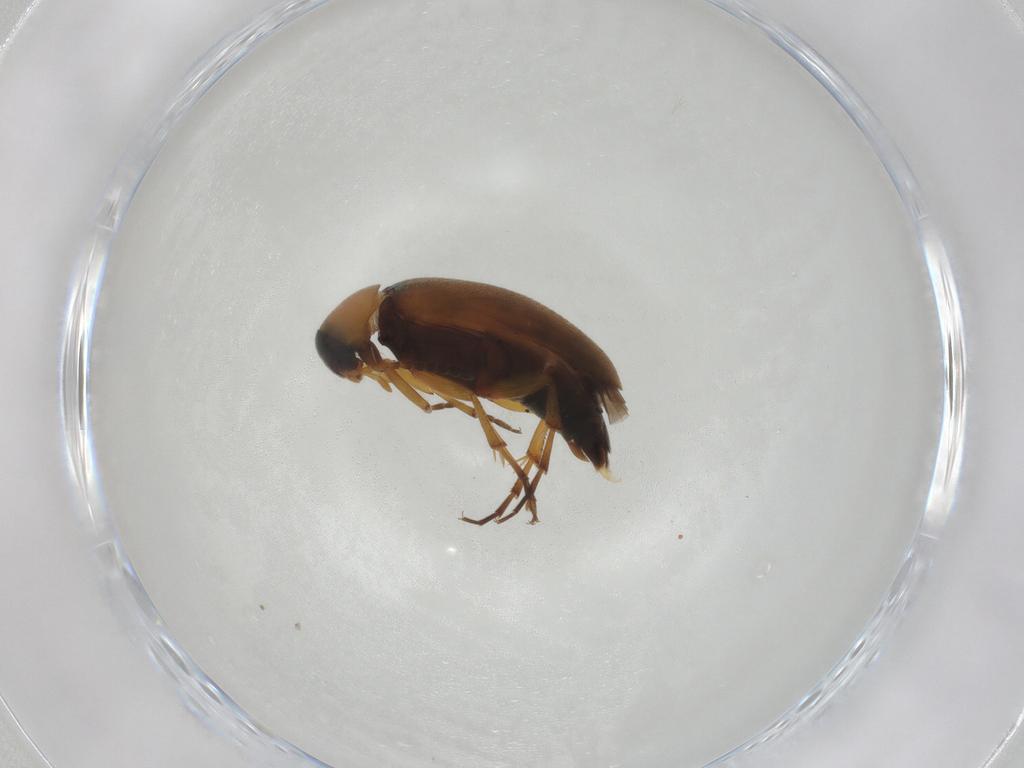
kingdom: Animalia
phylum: Arthropoda
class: Insecta
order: Coleoptera
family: Scraptiidae
